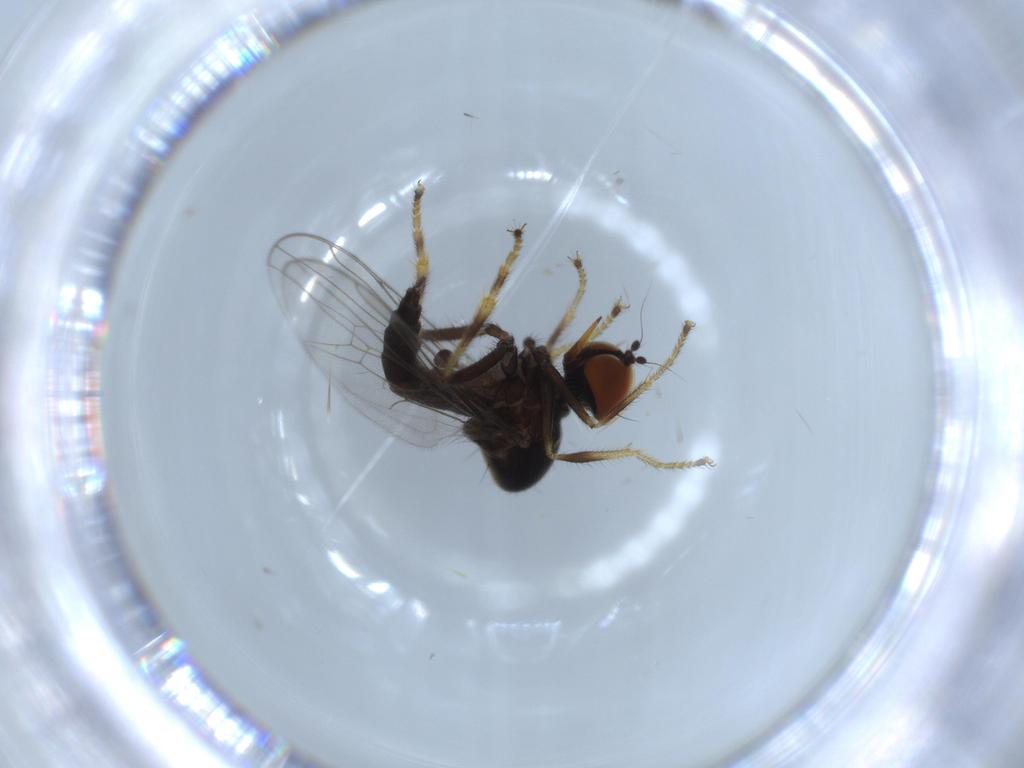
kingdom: Animalia
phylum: Arthropoda
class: Insecta
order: Diptera
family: Hybotidae
